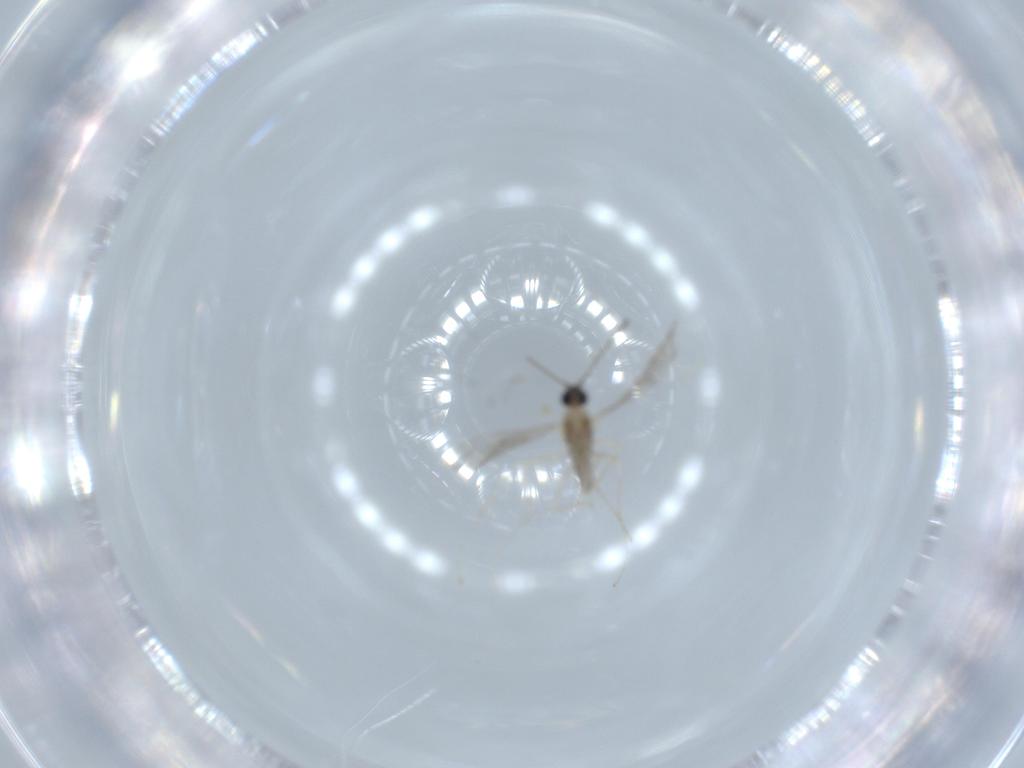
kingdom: Animalia
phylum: Arthropoda
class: Insecta
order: Diptera
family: Cecidomyiidae
